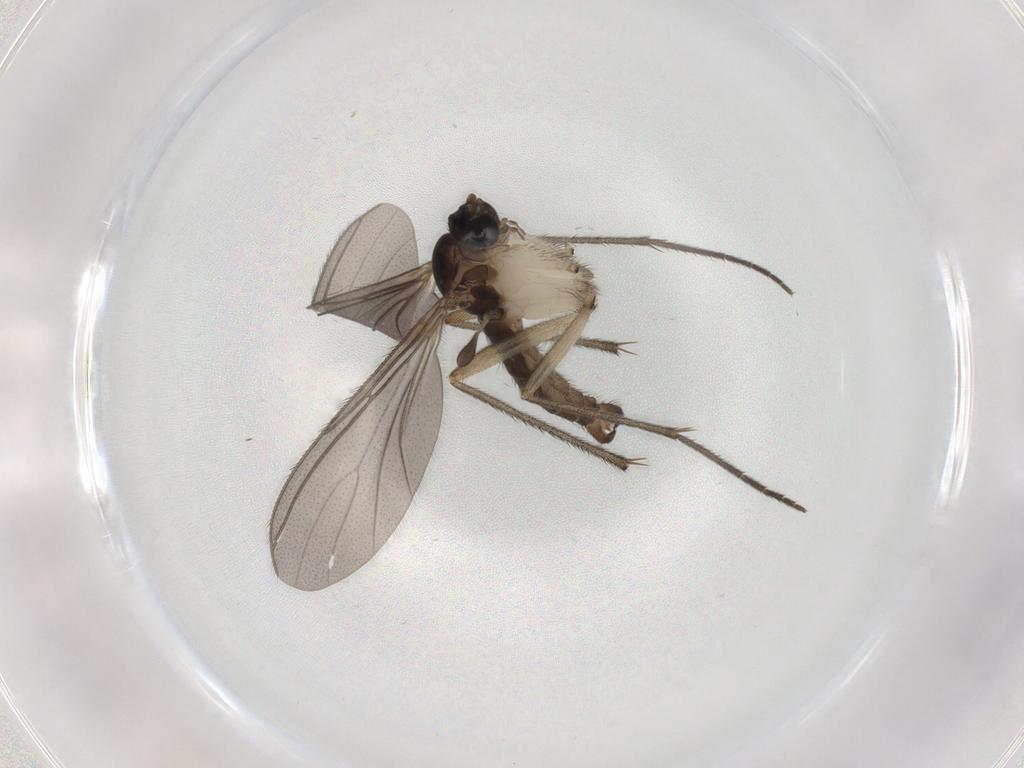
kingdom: Animalia
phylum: Arthropoda
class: Insecta
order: Diptera
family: Sciaridae
